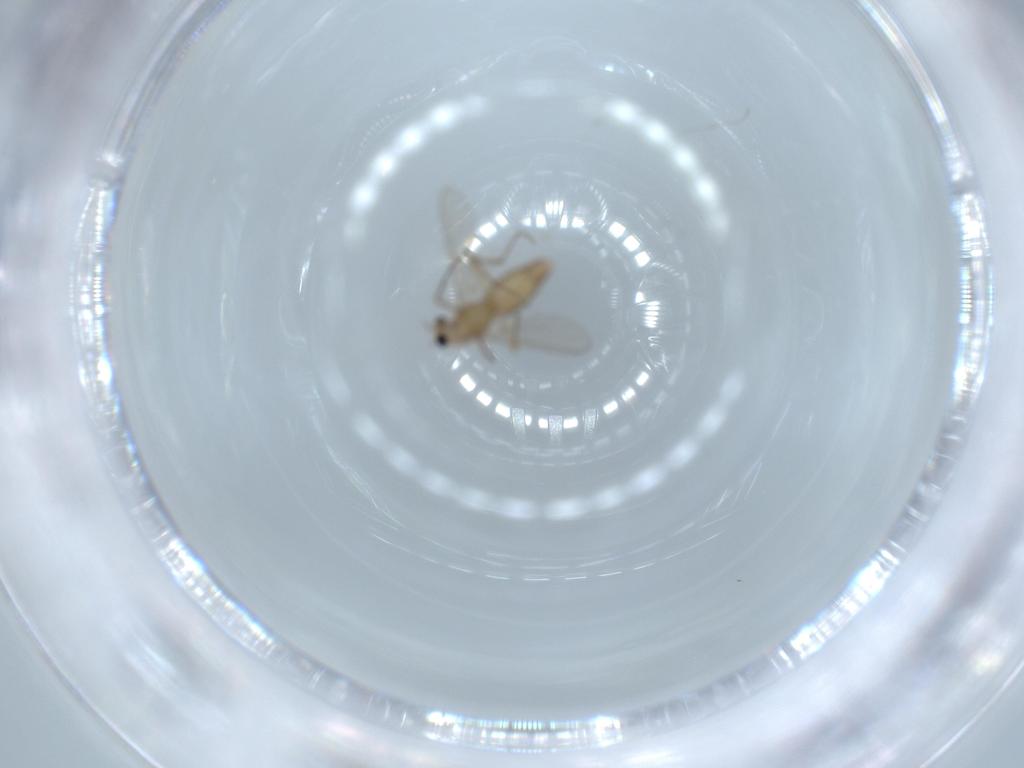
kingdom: Animalia
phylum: Arthropoda
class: Insecta
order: Diptera
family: Chironomidae
